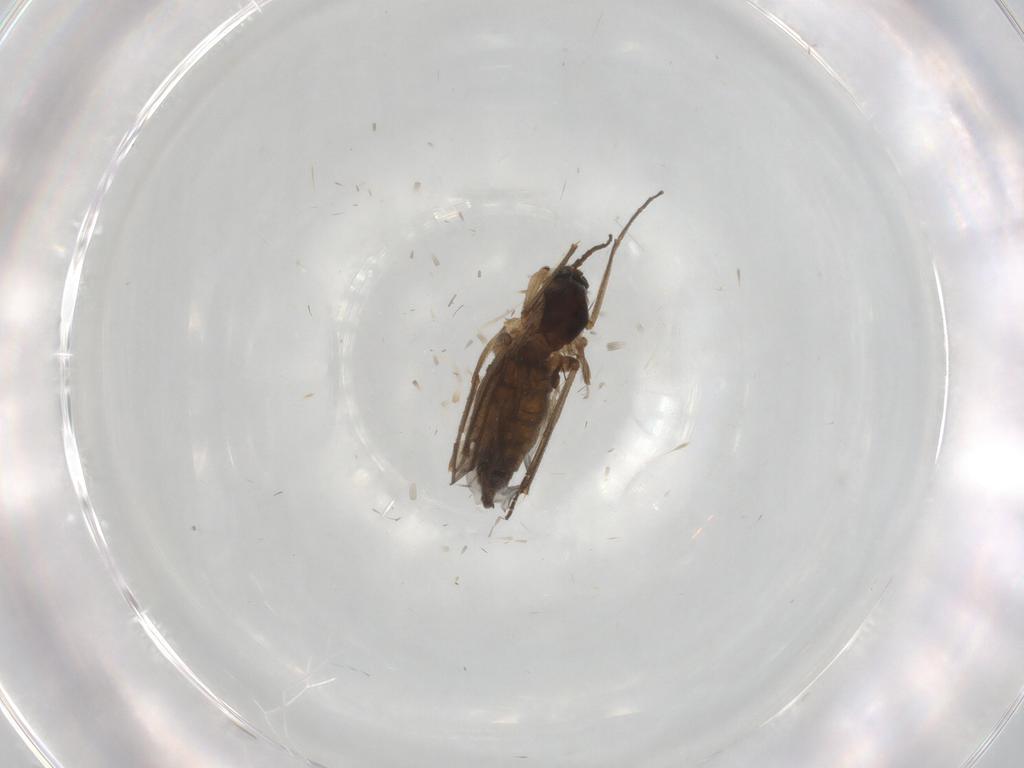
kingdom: Animalia
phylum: Arthropoda
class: Insecta
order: Diptera
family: Sciaridae
